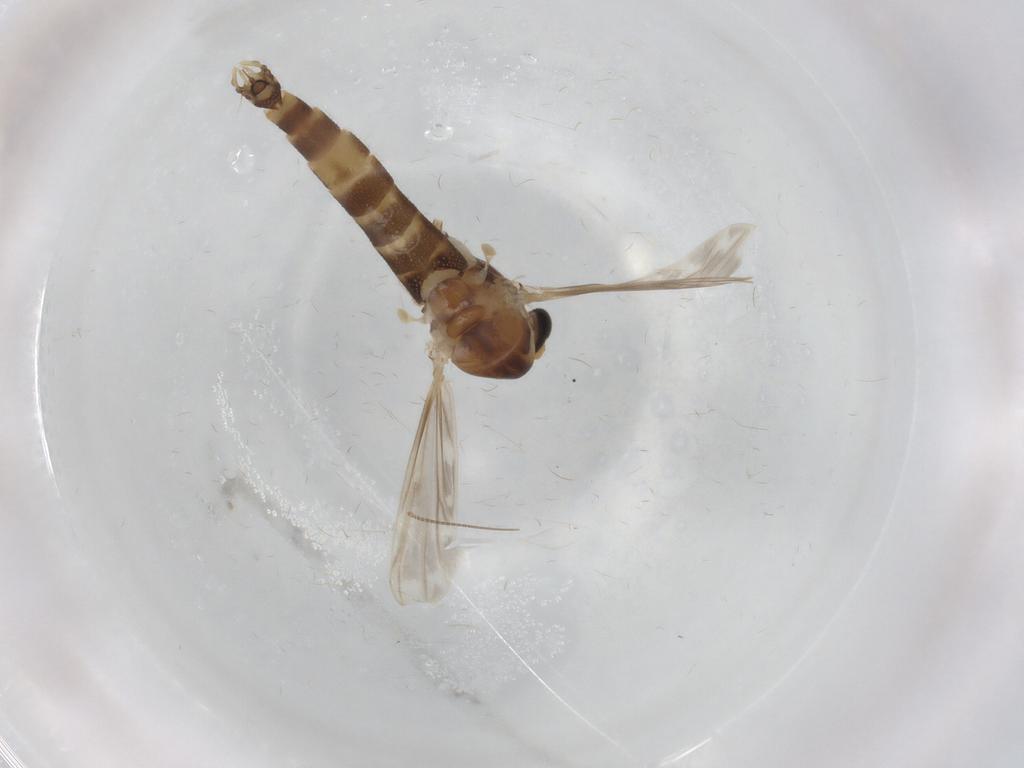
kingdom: Animalia
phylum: Arthropoda
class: Insecta
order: Diptera
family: Chironomidae
